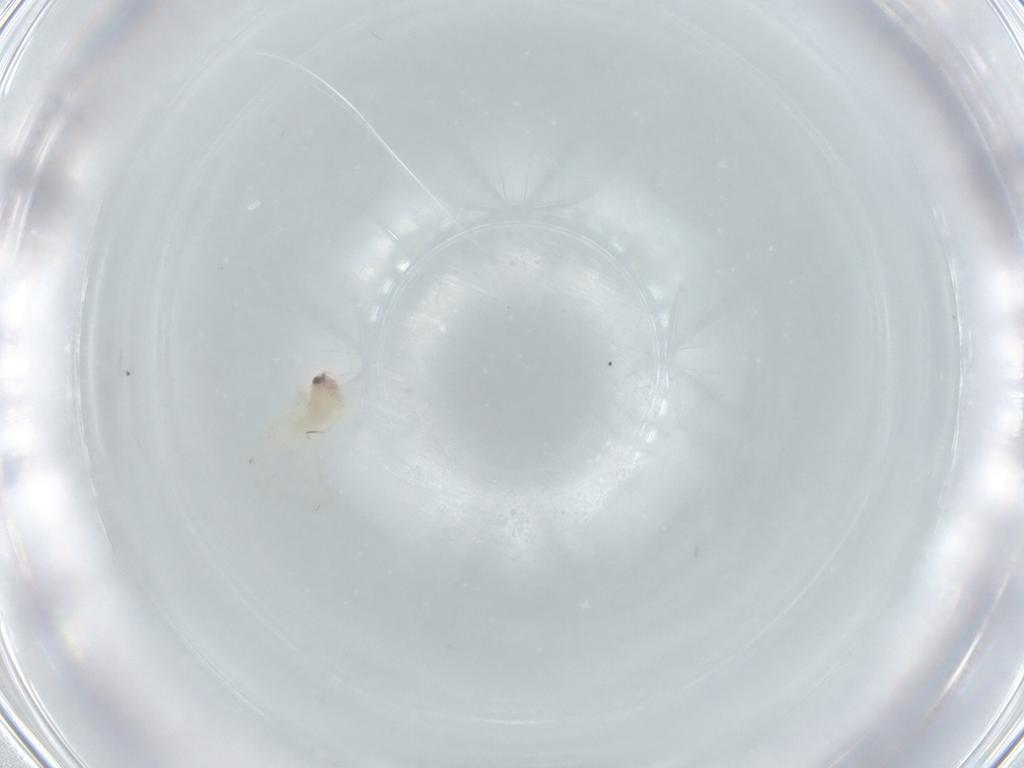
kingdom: Animalia
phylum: Arthropoda
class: Insecta
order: Hemiptera
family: Aleyrodidae
